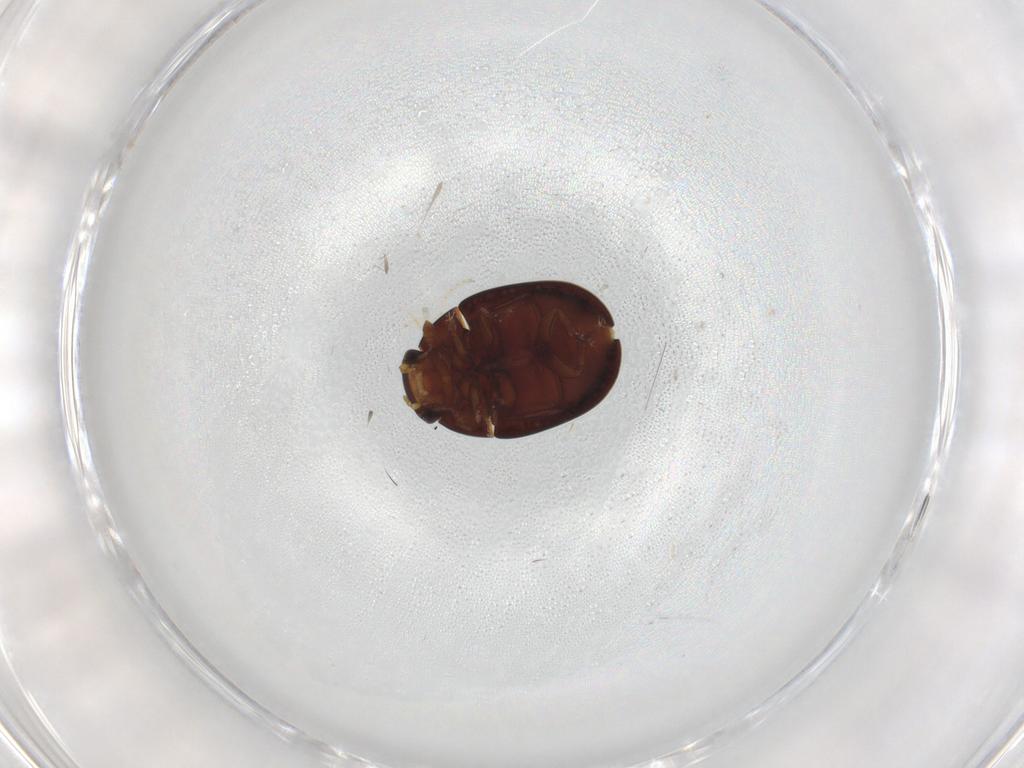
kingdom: Animalia
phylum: Arthropoda
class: Insecta
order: Coleoptera
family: Hydrophilidae
